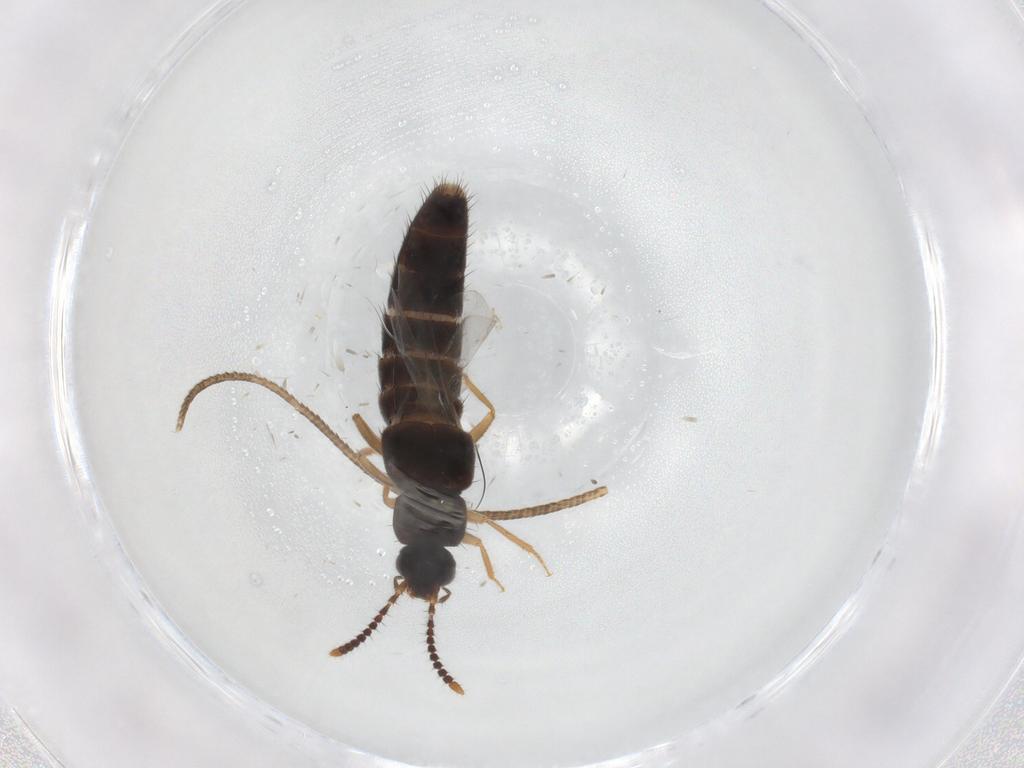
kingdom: Animalia
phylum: Arthropoda
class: Insecta
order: Coleoptera
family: Staphylinidae
